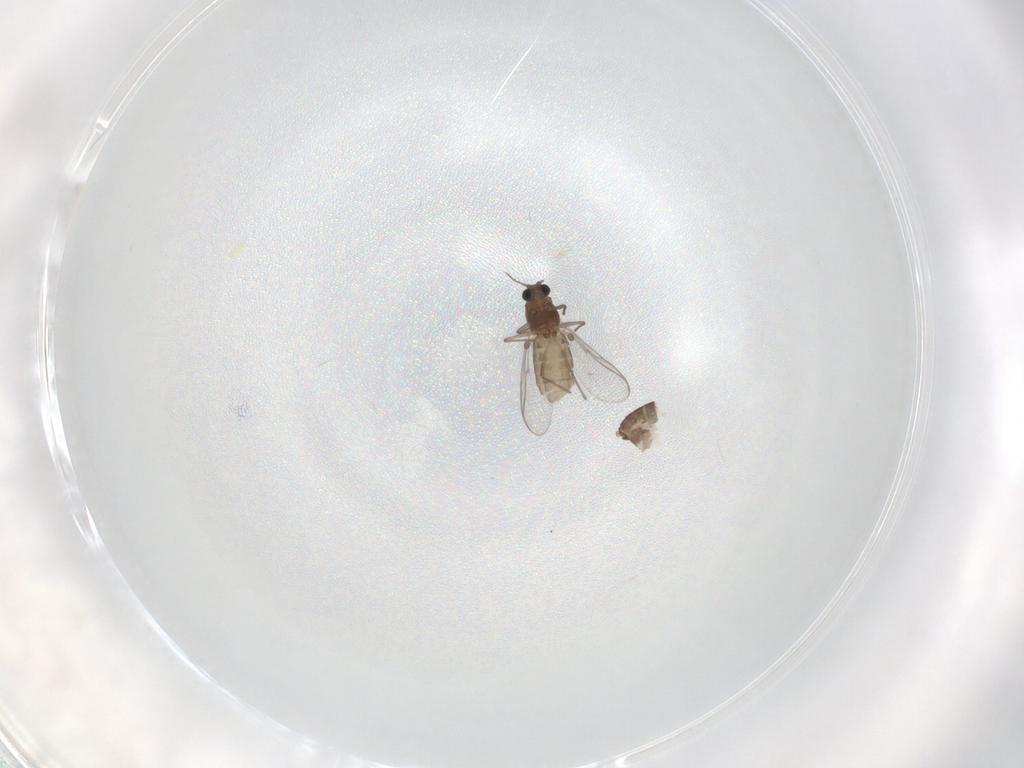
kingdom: Animalia
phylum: Arthropoda
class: Insecta
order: Diptera
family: Chironomidae
